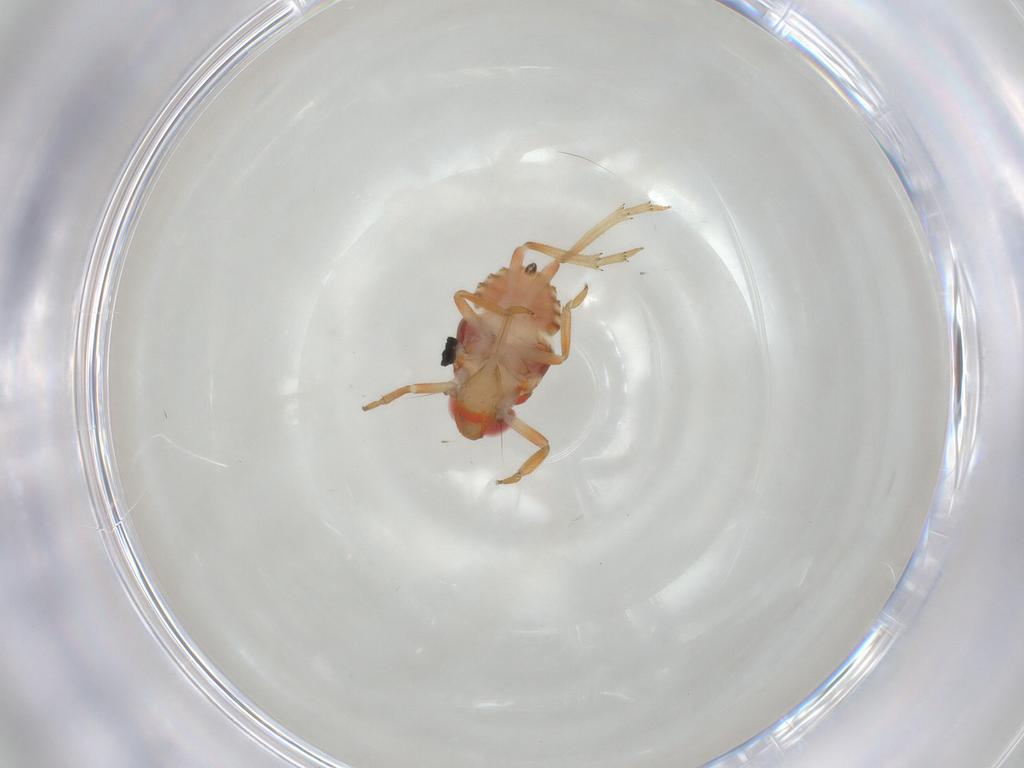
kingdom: Animalia
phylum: Arthropoda
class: Insecta
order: Hemiptera
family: Issidae
